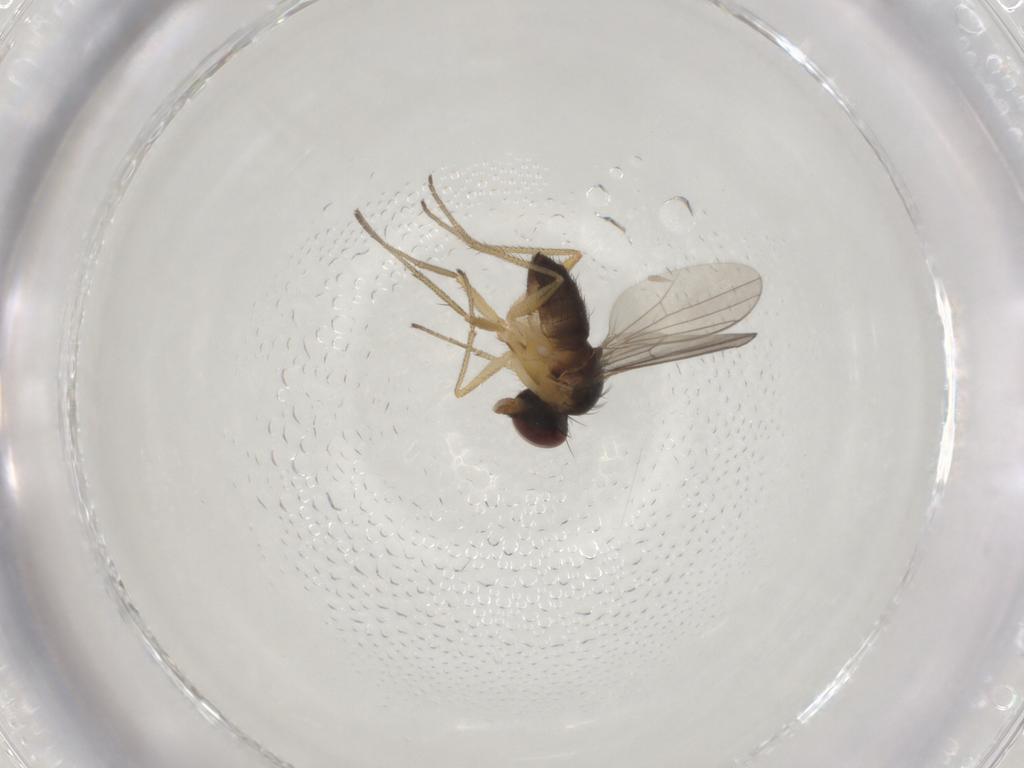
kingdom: Animalia
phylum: Arthropoda
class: Insecta
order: Diptera
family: Dolichopodidae
